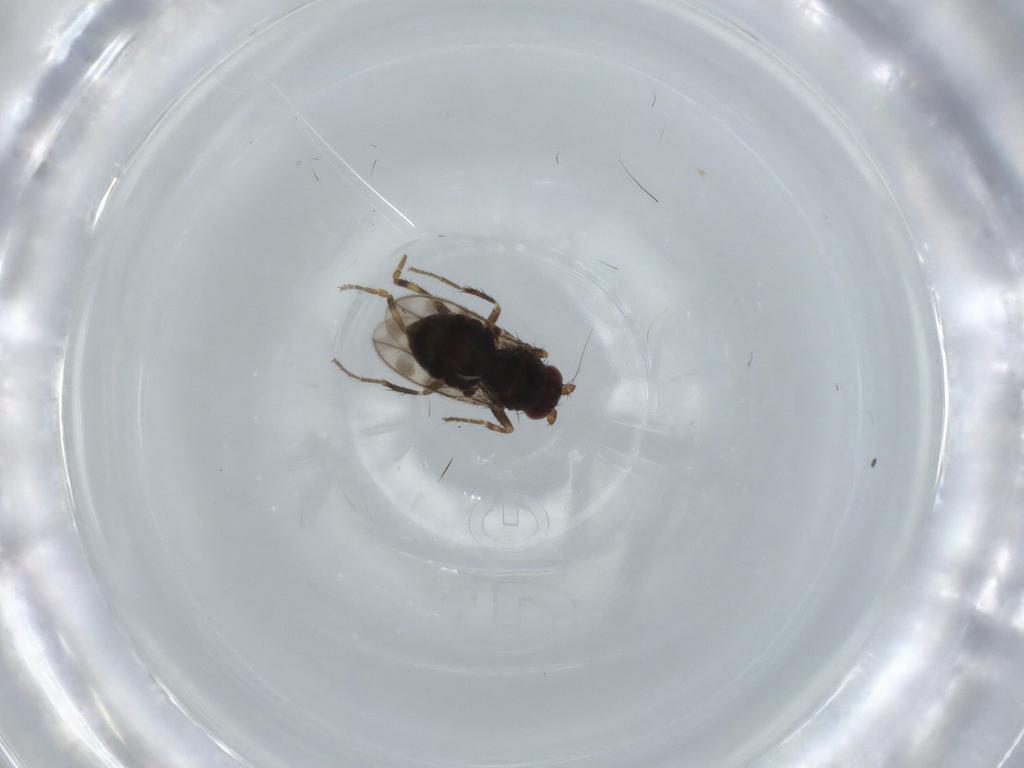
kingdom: Animalia
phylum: Arthropoda
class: Insecta
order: Diptera
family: Sphaeroceridae
